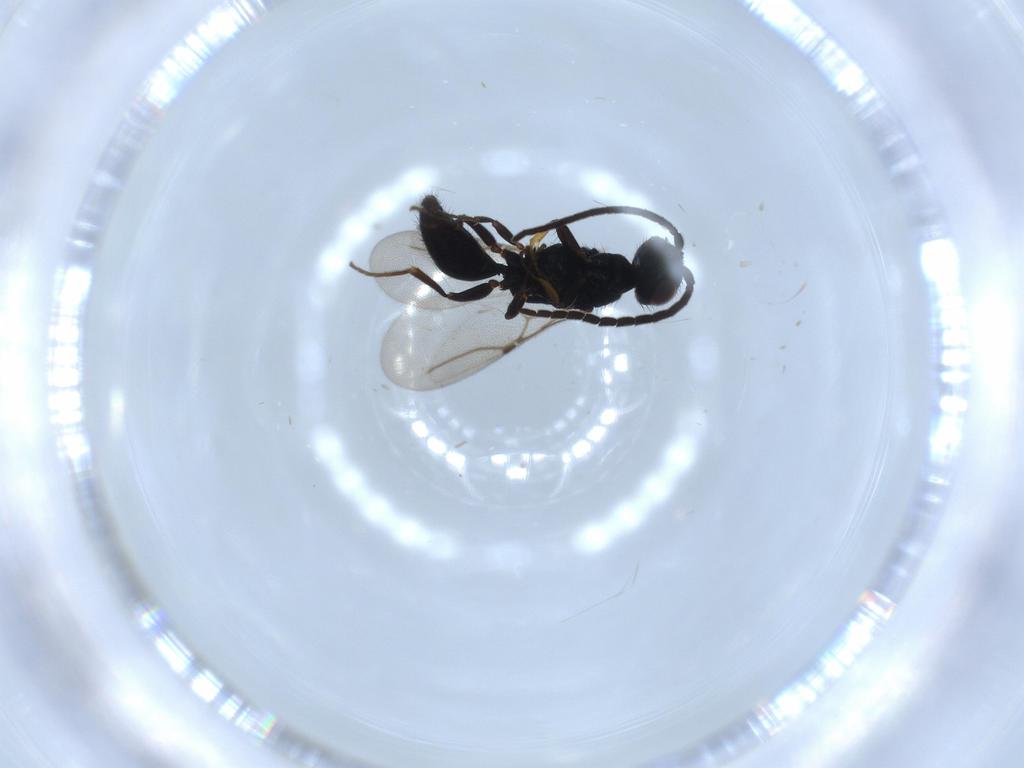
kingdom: Animalia
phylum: Arthropoda
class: Insecta
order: Hymenoptera
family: Bethylidae
